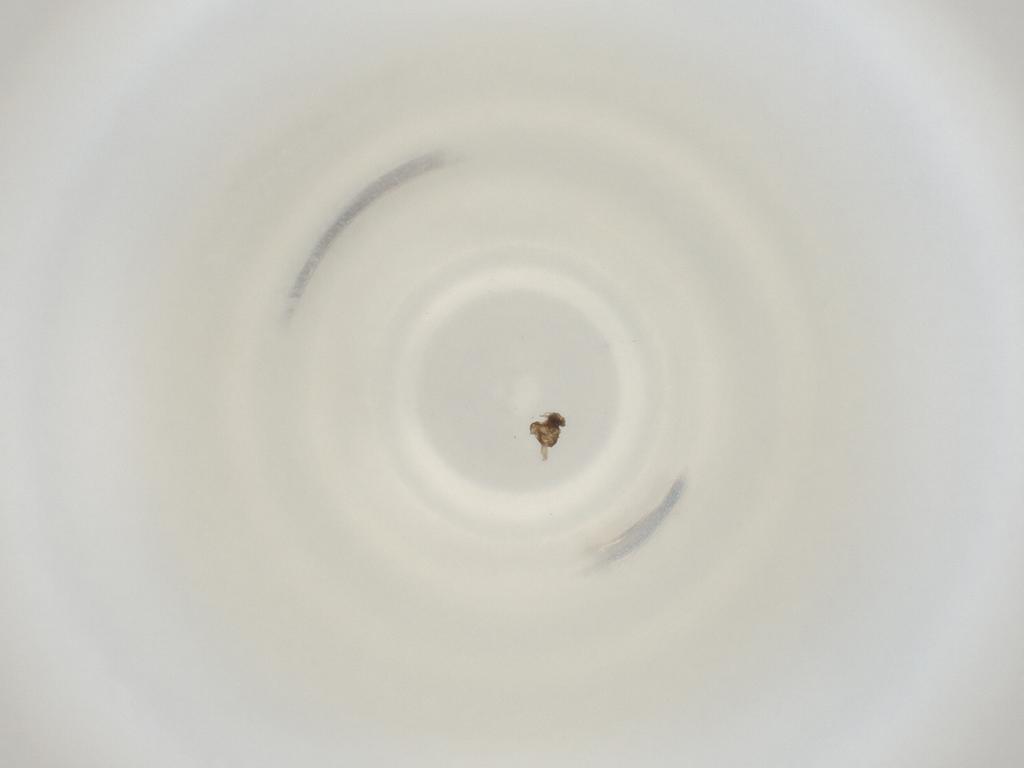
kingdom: Animalia
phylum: Arthropoda
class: Insecta
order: Diptera
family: Cecidomyiidae
